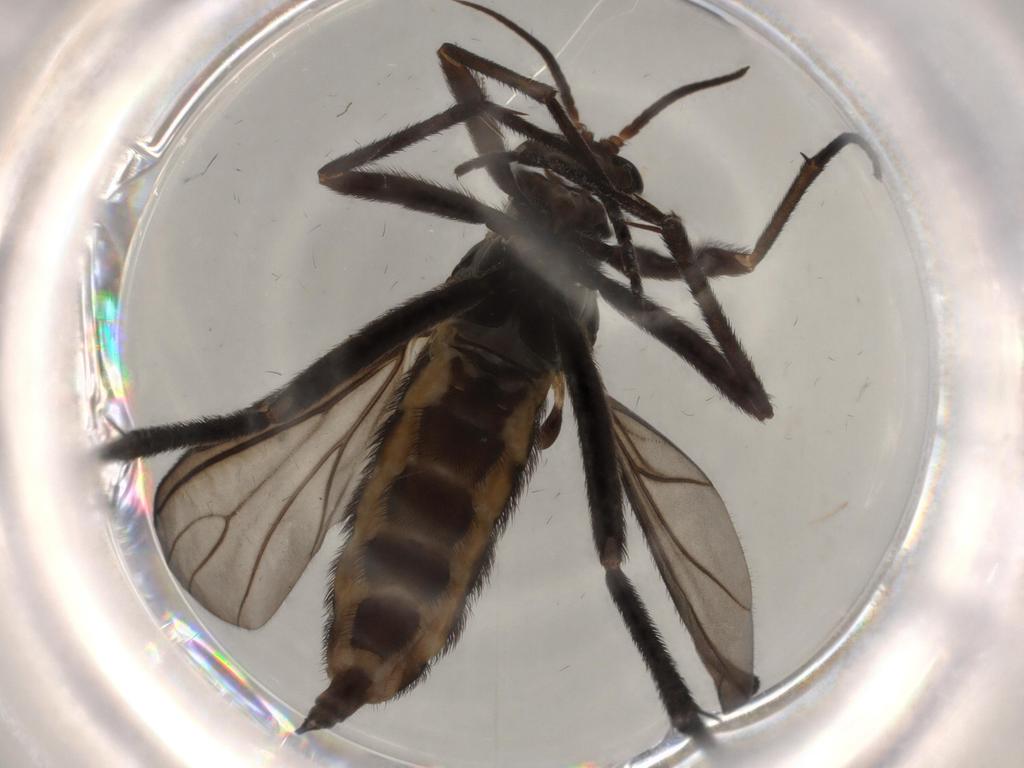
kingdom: Animalia
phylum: Arthropoda
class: Insecta
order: Diptera
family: Sciaridae
